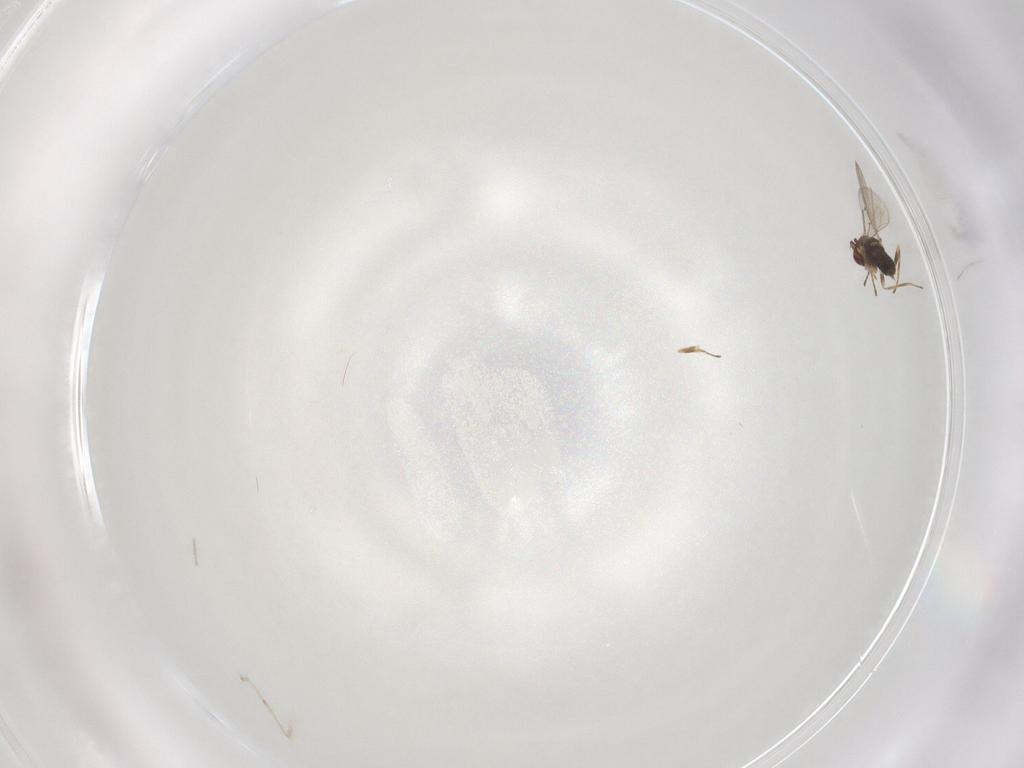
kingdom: Animalia
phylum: Arthropoda
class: Insecta
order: Hymenoptera
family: Eulophidae
